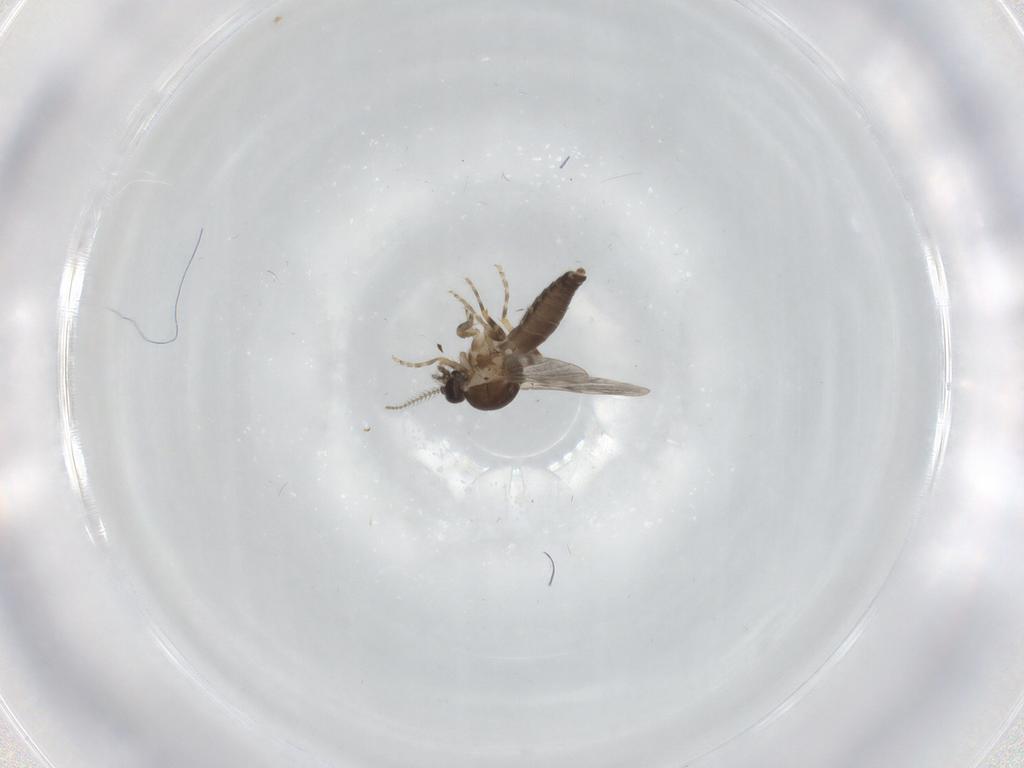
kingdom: Animalia
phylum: Arthropoda
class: Insecta
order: Diptera
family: Ceratopogonidae
